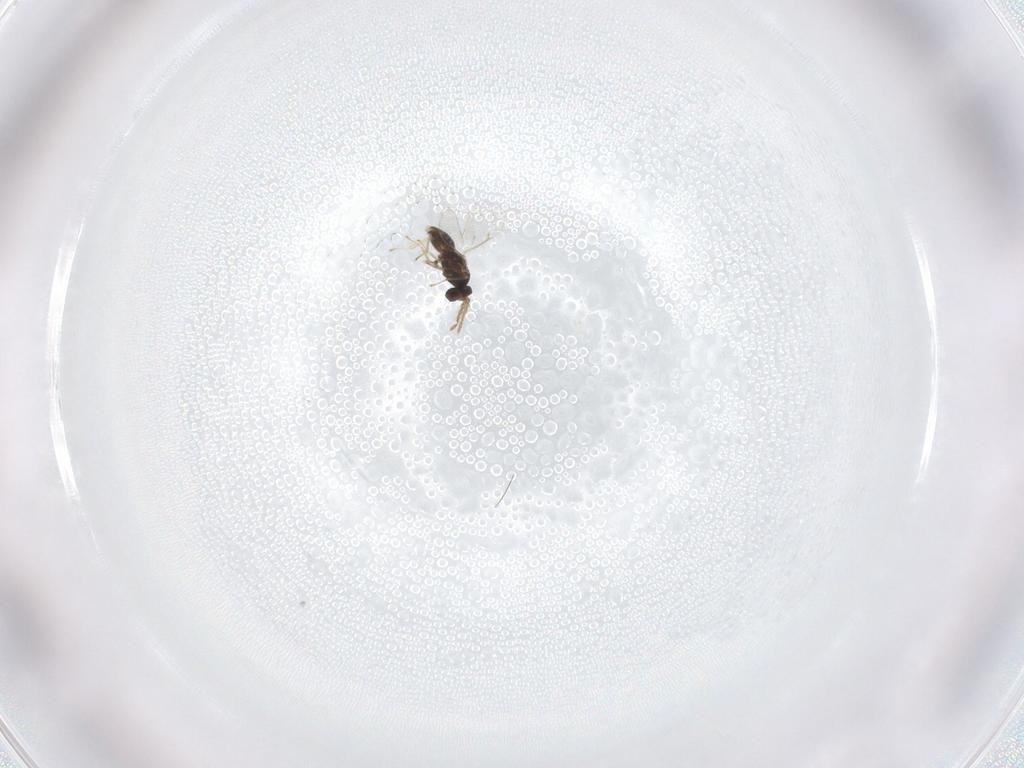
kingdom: Animalia
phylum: Arthropoda
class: Insecta
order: Hymenoptera
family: Eulophidae
